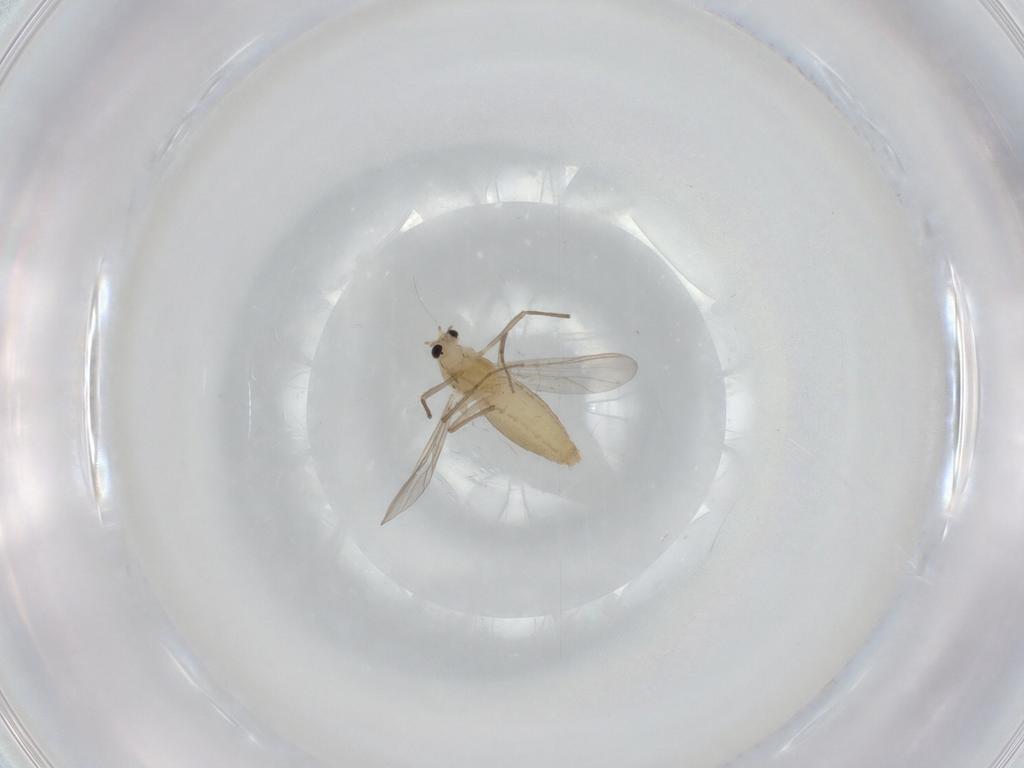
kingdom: Animalia
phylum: Arthropoda
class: Insecta
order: Diptera
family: Chironomidae
